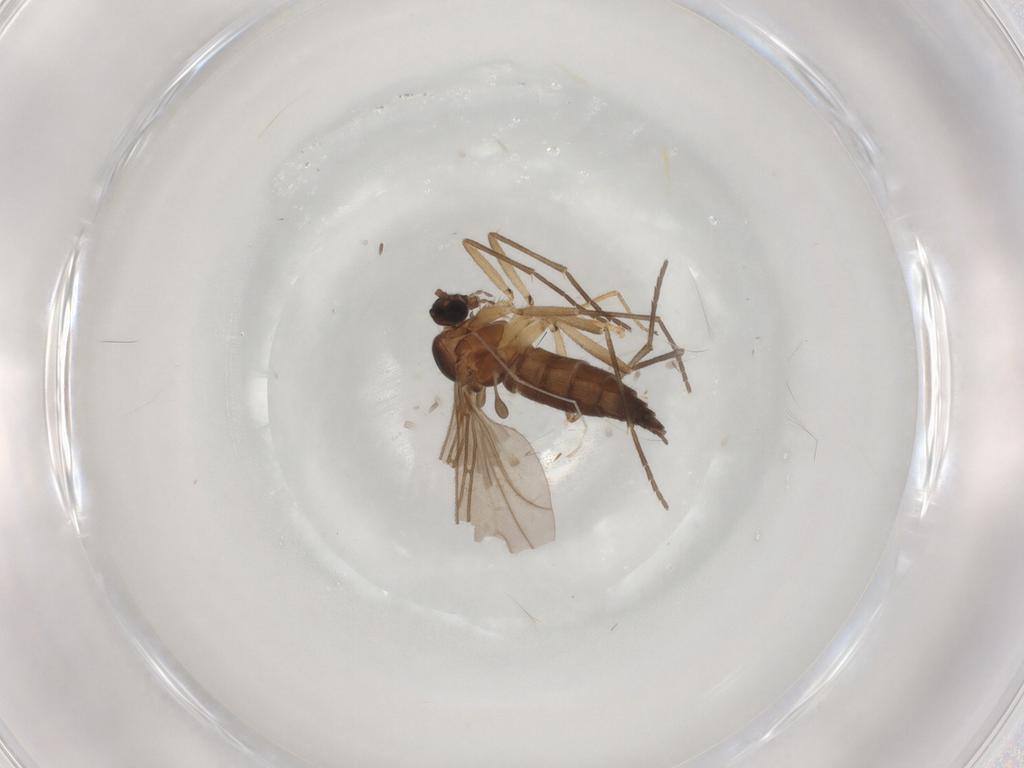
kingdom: Animalia
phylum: Arthropoda
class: Insecta
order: Diptera
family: Sciaridae
